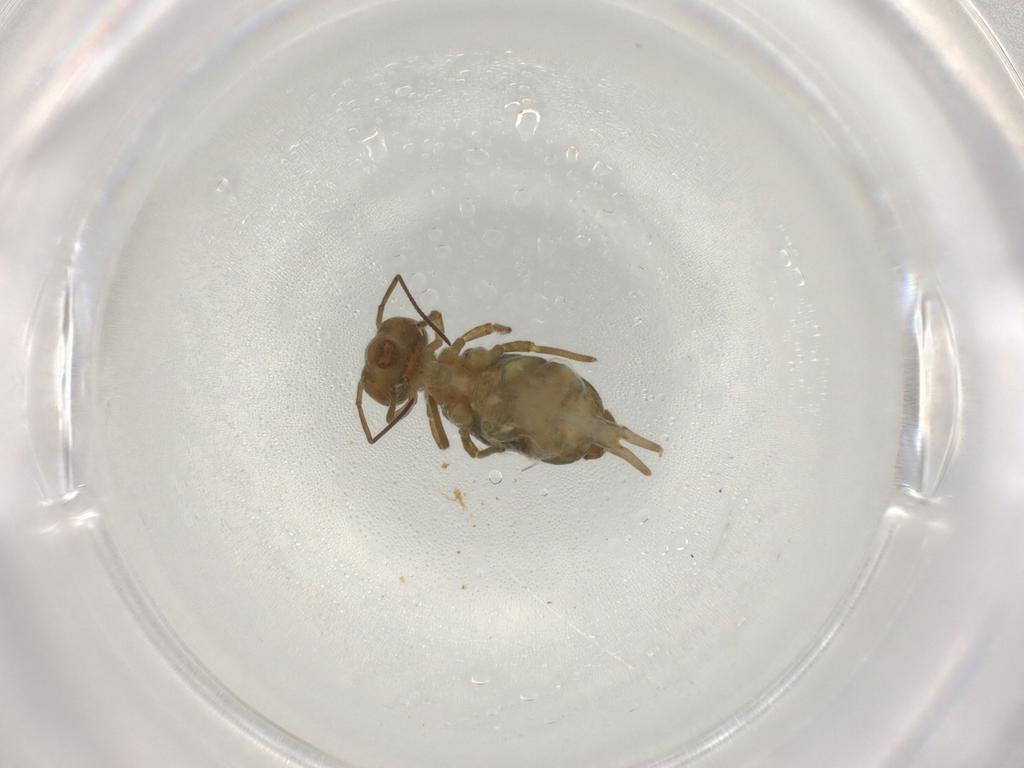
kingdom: Animalia
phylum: Arthropoda
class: Collembola
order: Symphypleona
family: Sminthuridae
